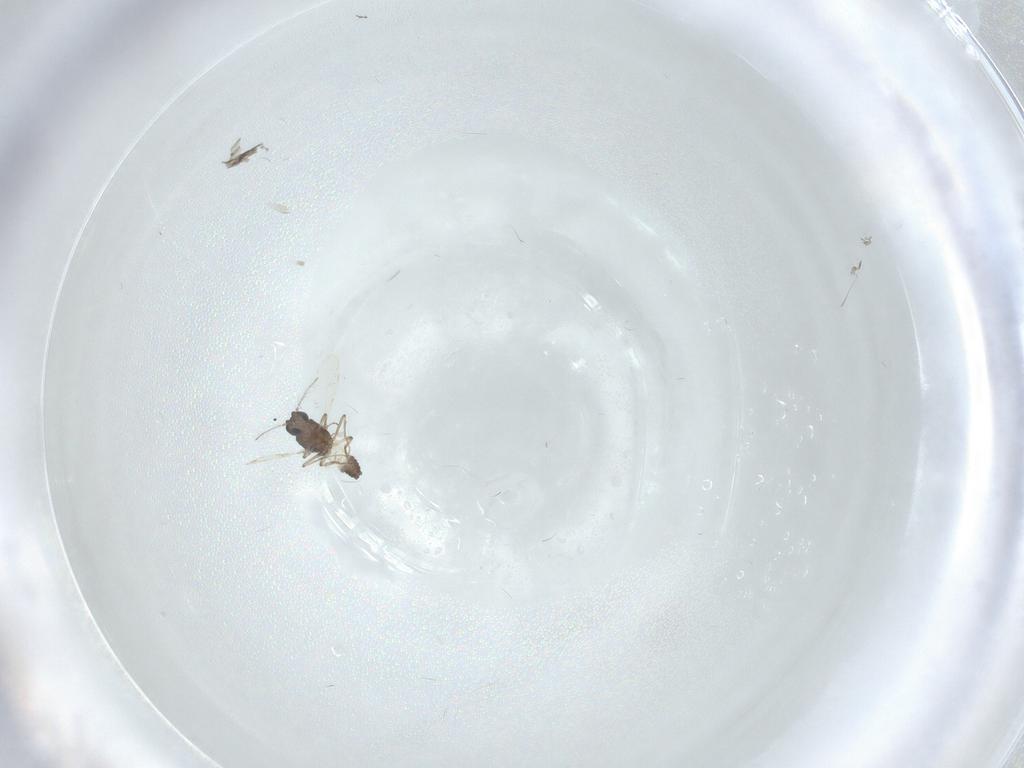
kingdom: Animalia
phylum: Arthropoda
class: Insecta
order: Diptera
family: Ceratopogonidae
